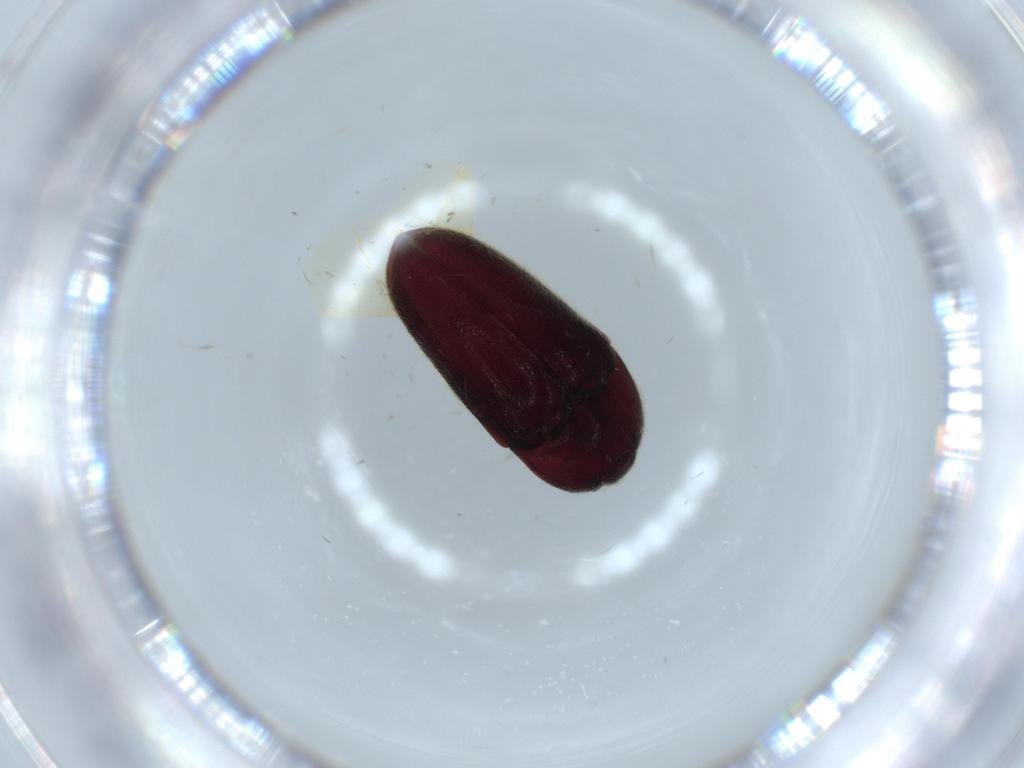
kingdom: Animalia
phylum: Arthropoda
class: Insecta
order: Coleoptera
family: Throscidae
